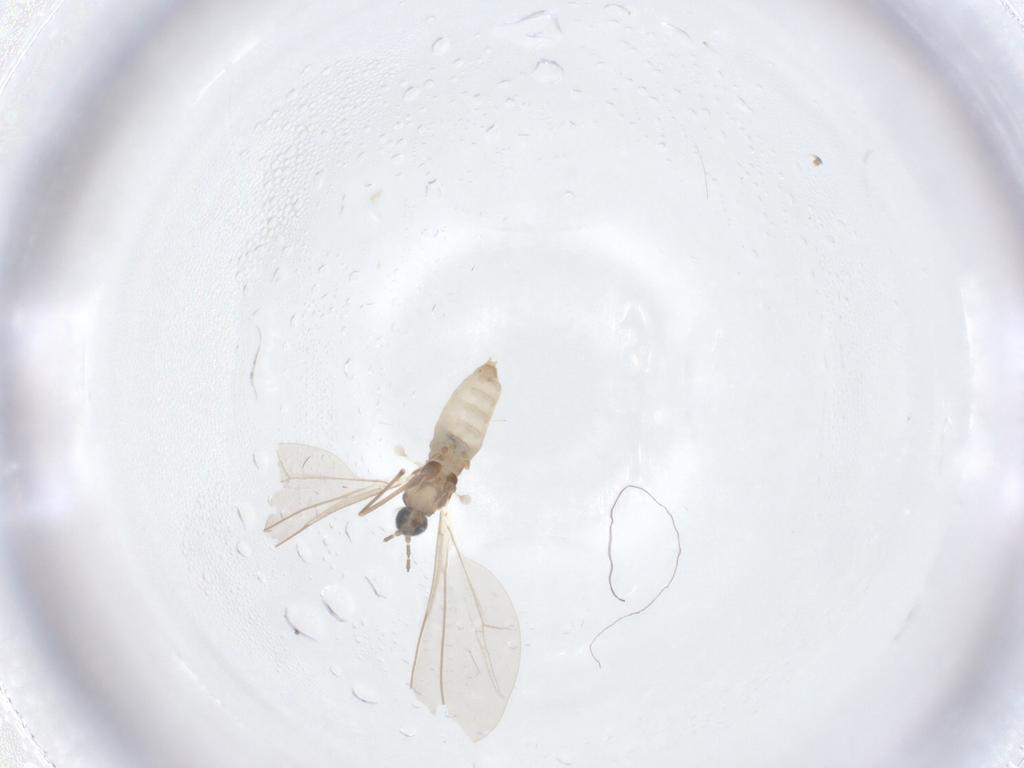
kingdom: Animalia
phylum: Arthropoda
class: Insecta
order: Diptera
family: Cecidomyiidae
